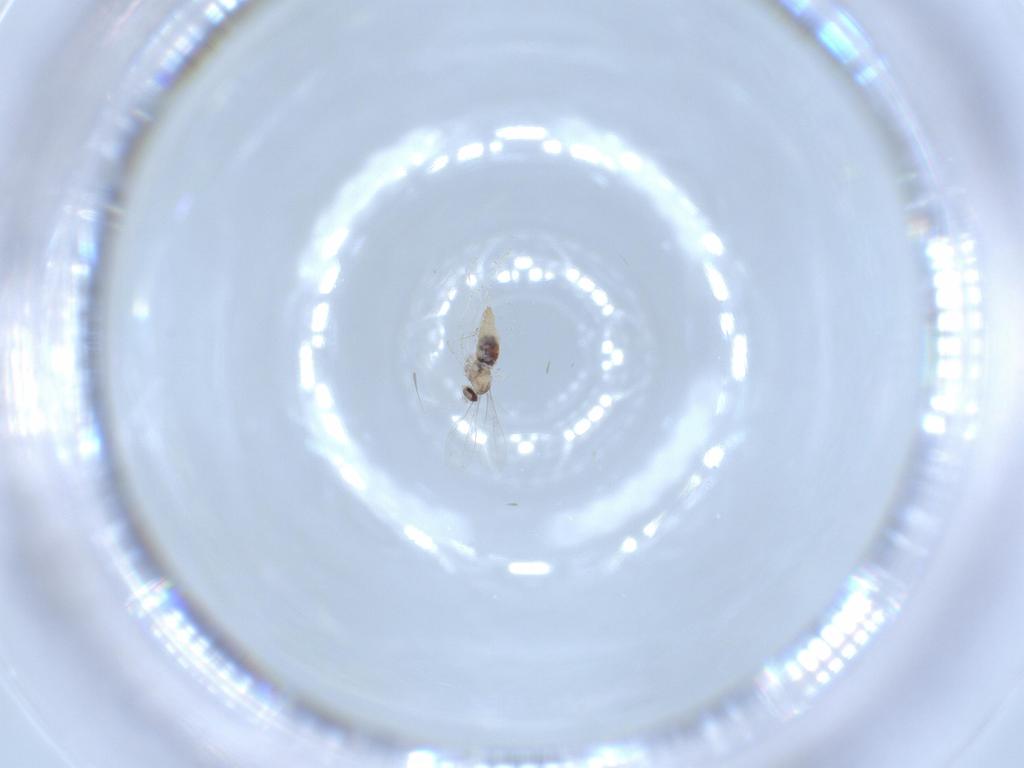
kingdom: Animalia
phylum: Arthropoda
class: Insecta
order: Diptera
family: Cecidomyiidae
